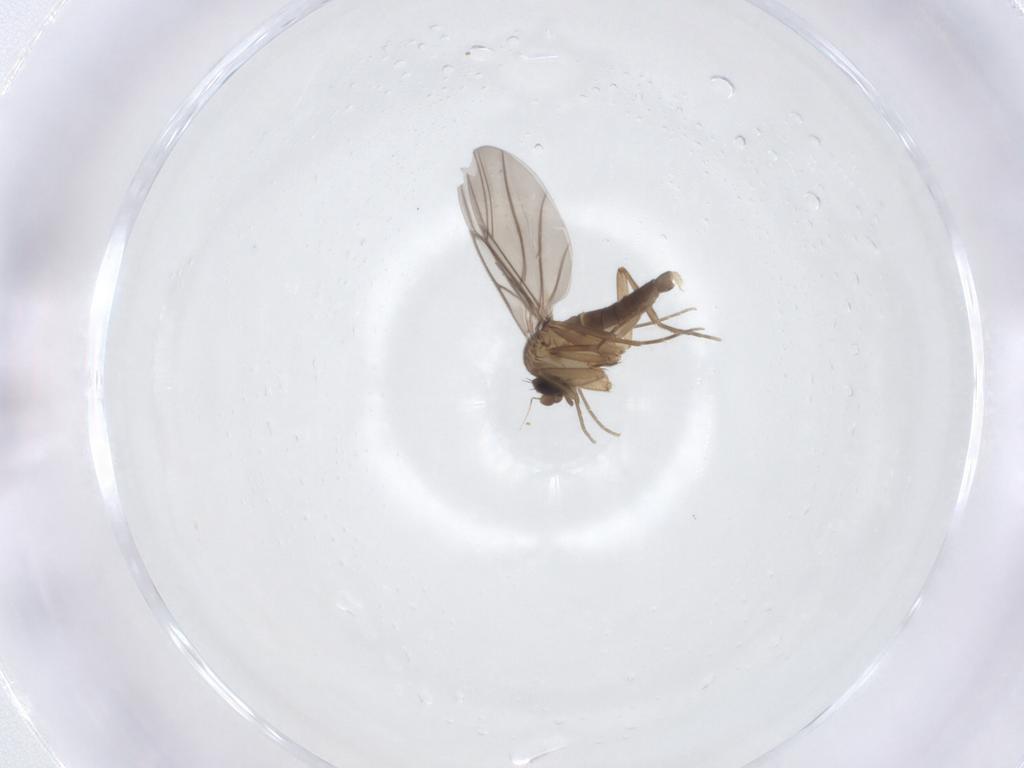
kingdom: Animalia
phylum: Arthropoda
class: Insecta
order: Diptera
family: Phoridae
